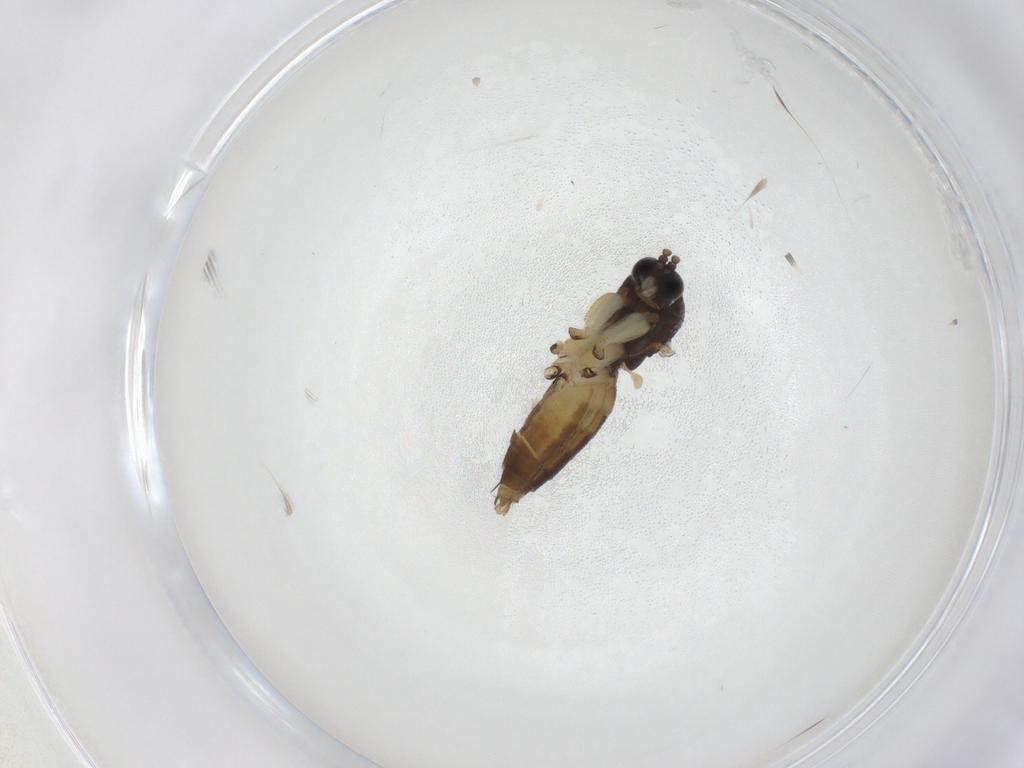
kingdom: Animalia
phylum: Arthropoda
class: Insecta
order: Diptera
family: Mycetophilidae
